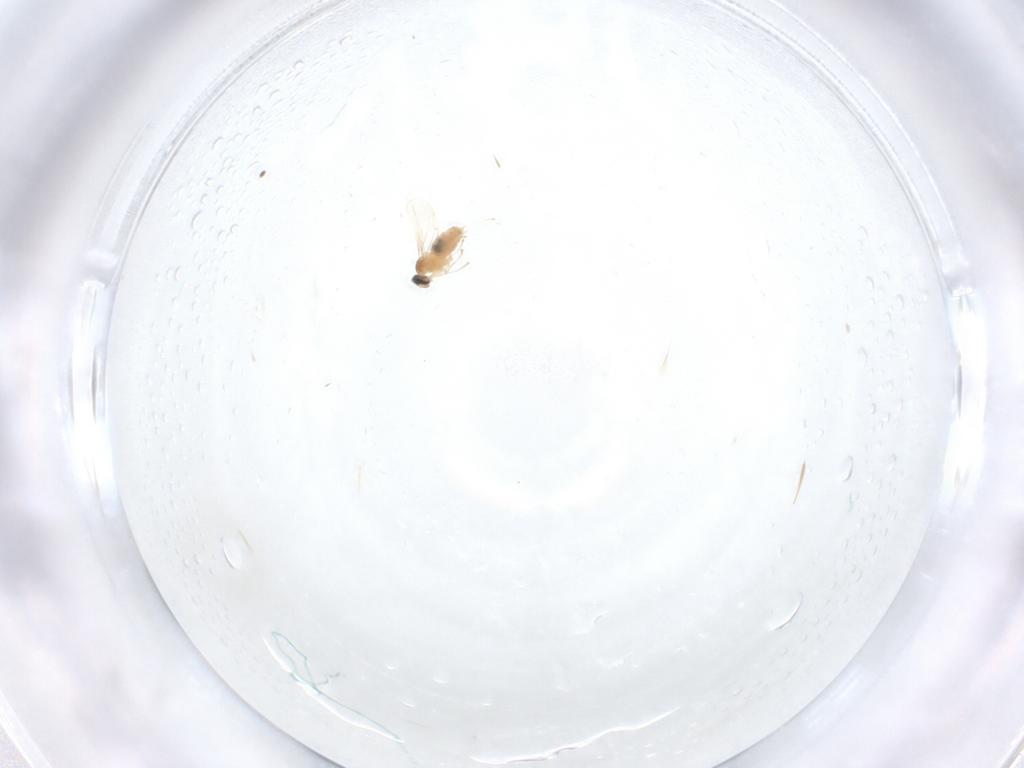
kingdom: Animalia
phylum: Arthropoda
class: Insecta
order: Diptera
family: Cecidomyiidae
